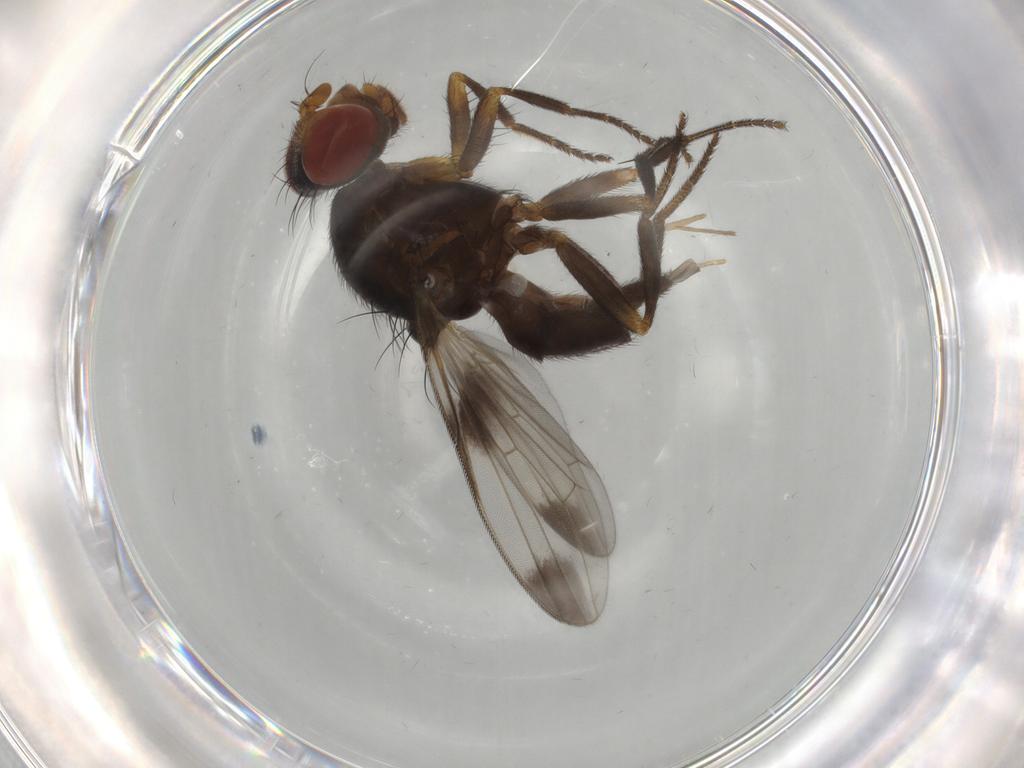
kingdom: Animalia
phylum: Arthropoda
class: Insecta
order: Diptera
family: Ulidiidae
